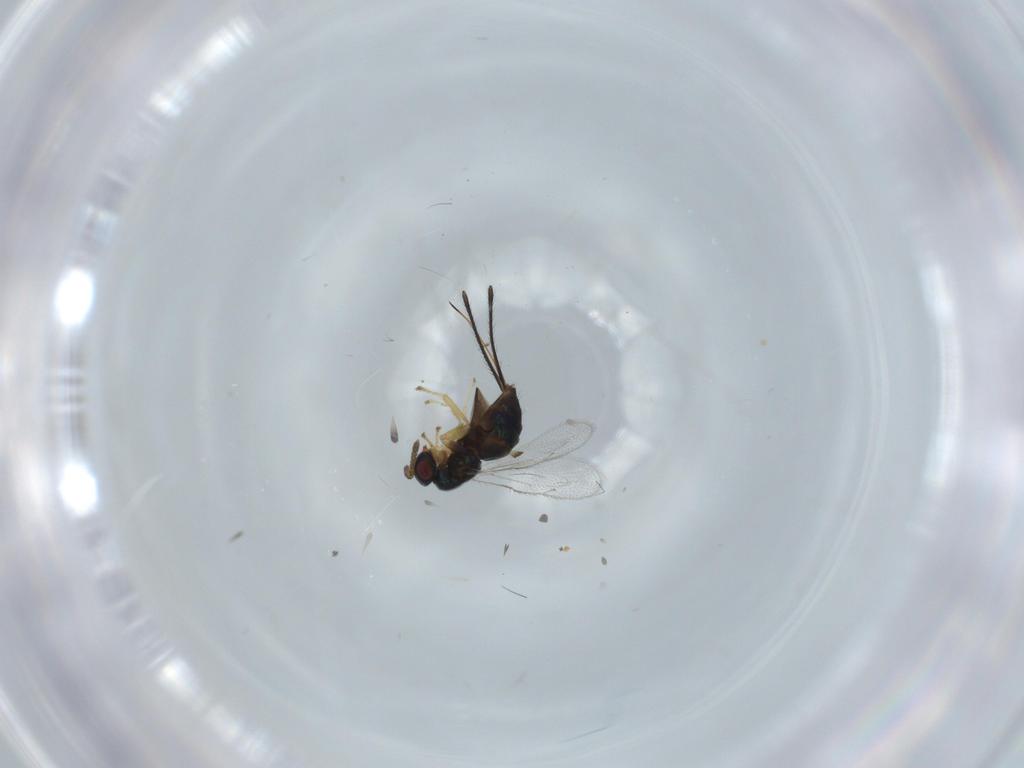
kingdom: Animalia
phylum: Arthropoda
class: Insecta
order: Hymenoptera
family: Torymidae
